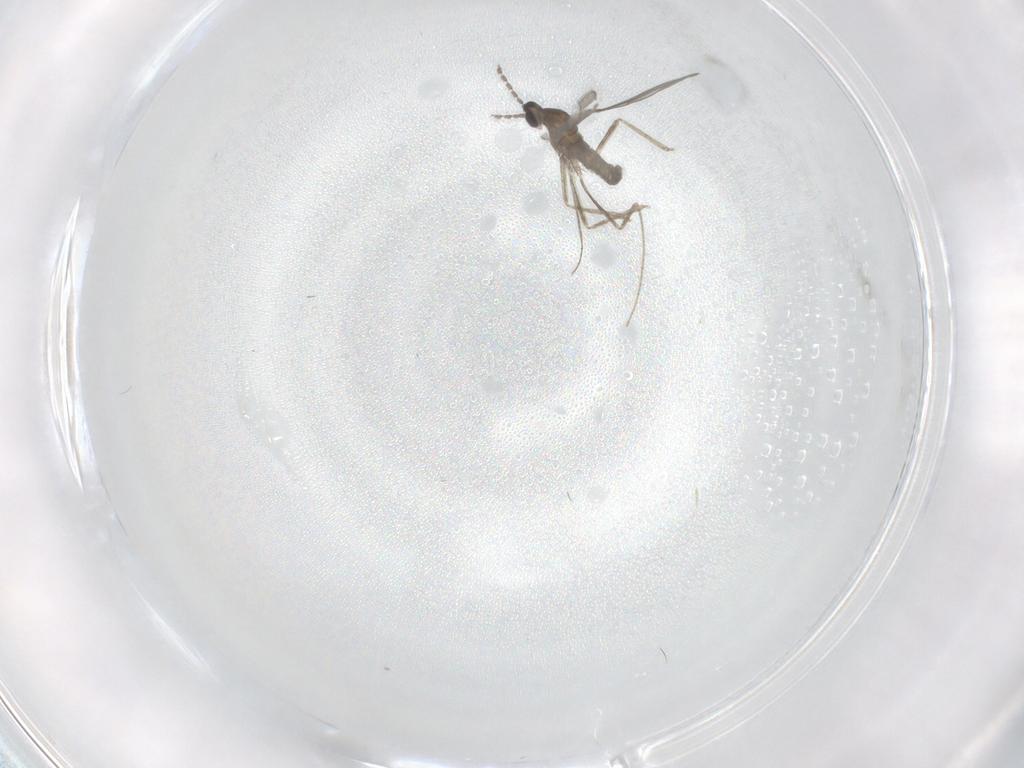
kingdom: Animalia
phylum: Arthropoda
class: Insecta
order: Diptera
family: Cecidomyiidae
